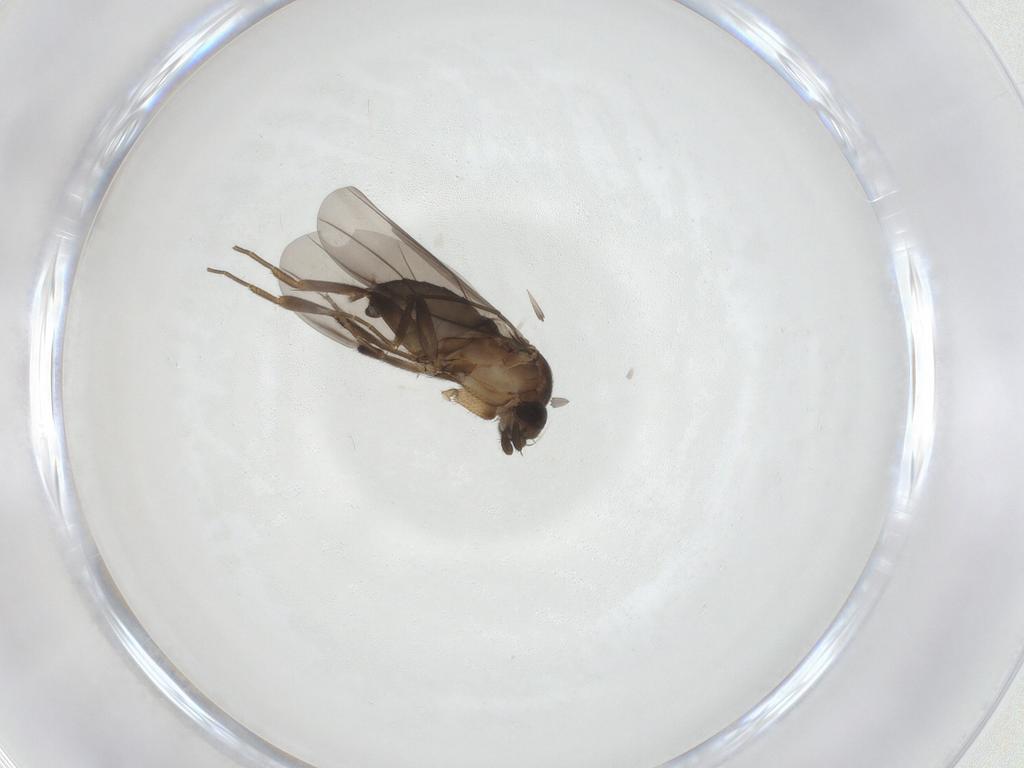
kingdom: Animalia
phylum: Arthropoda
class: Insecta
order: Diptera
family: Phoridae
